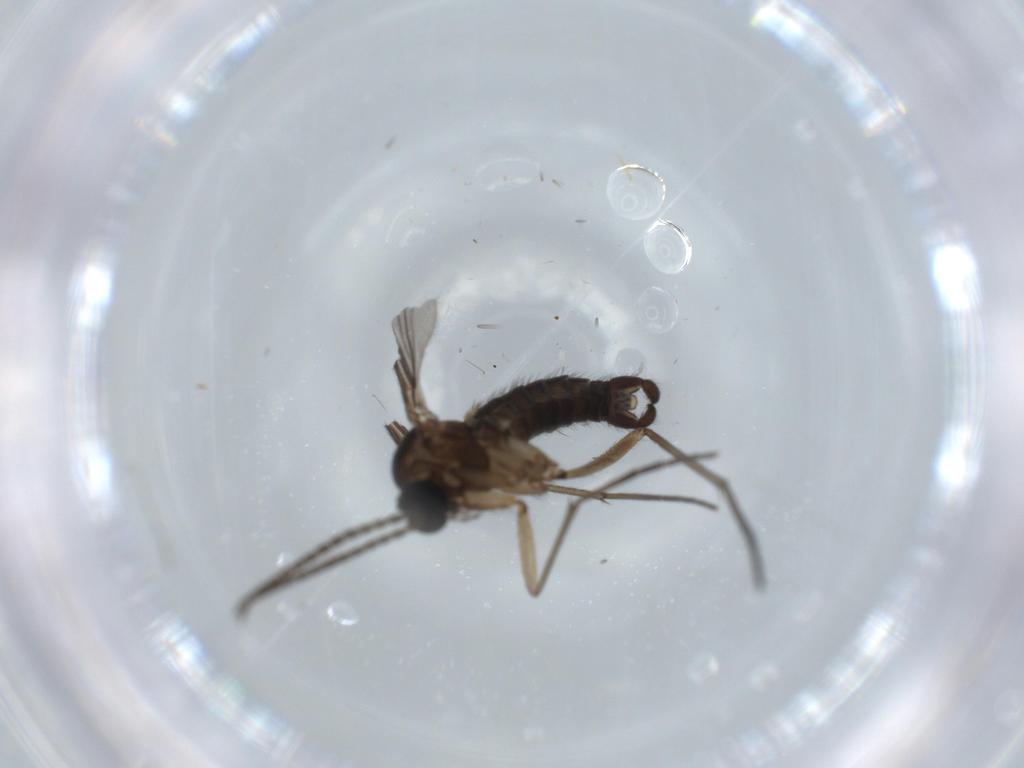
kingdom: Animalia
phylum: Arthropoda
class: Insecta
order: Diptera
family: Sciaridae
